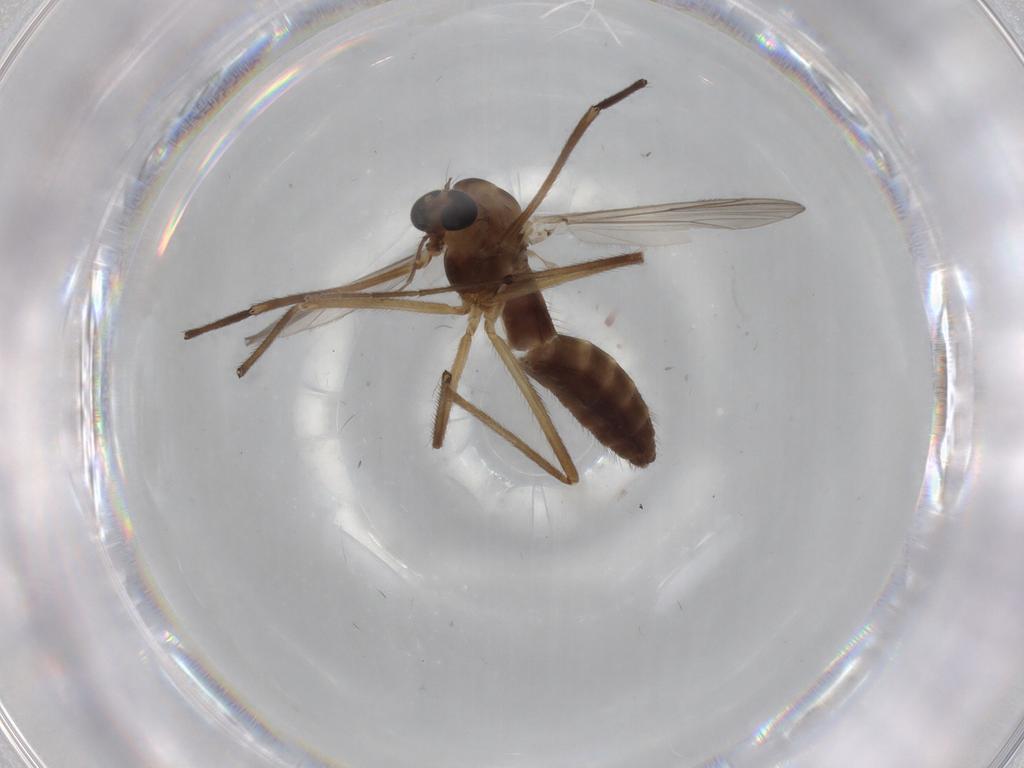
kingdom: Animalia
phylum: Arthropoda
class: Insecta
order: Diptera
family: Chironomidae
